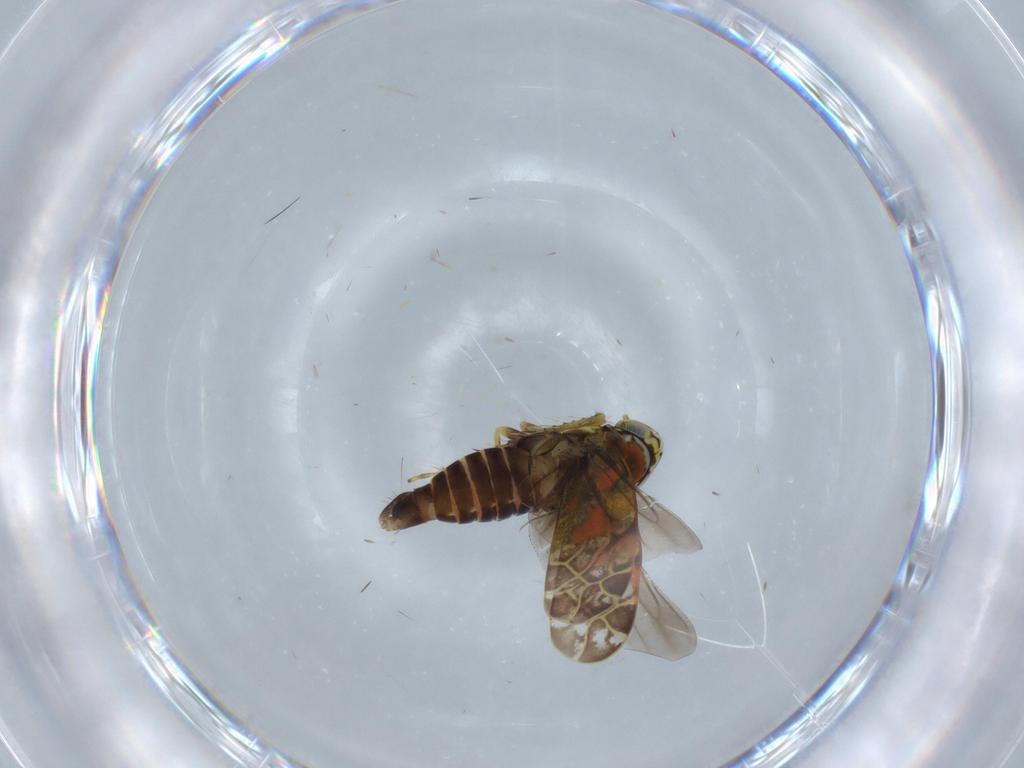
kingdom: Animalia
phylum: Arthropoda
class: Insecta
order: Hemiptera
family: Cicadellidae
